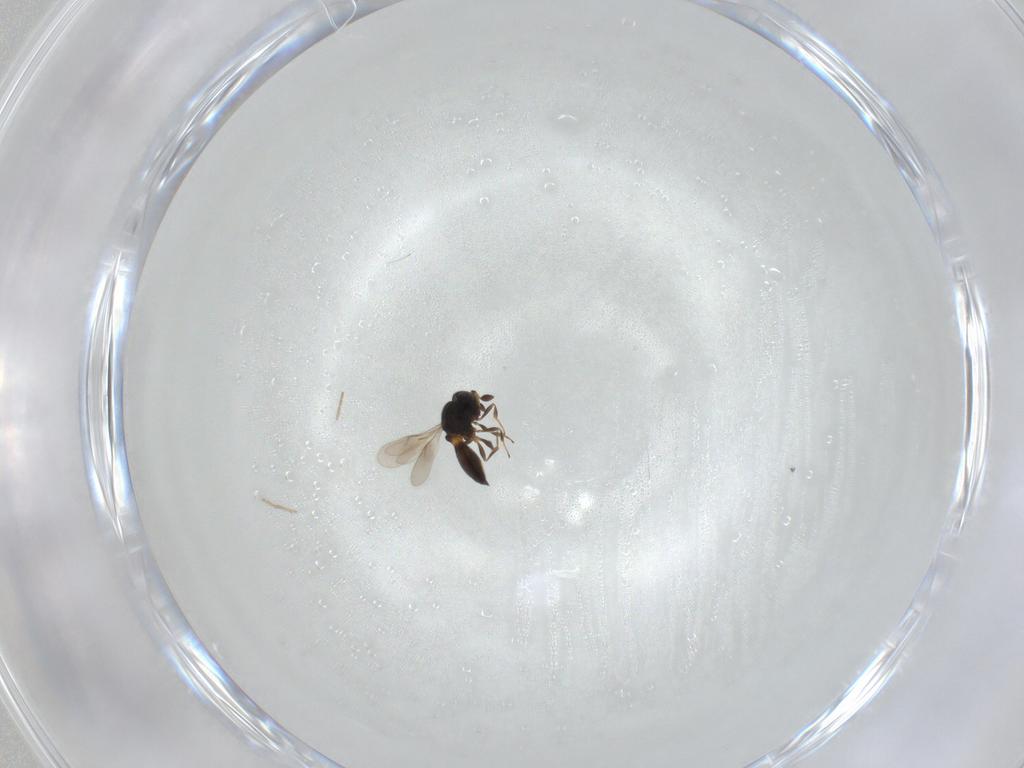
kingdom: Animalia
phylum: Arthropoda
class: Insecta
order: Hymenoptera
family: Scelionidae
